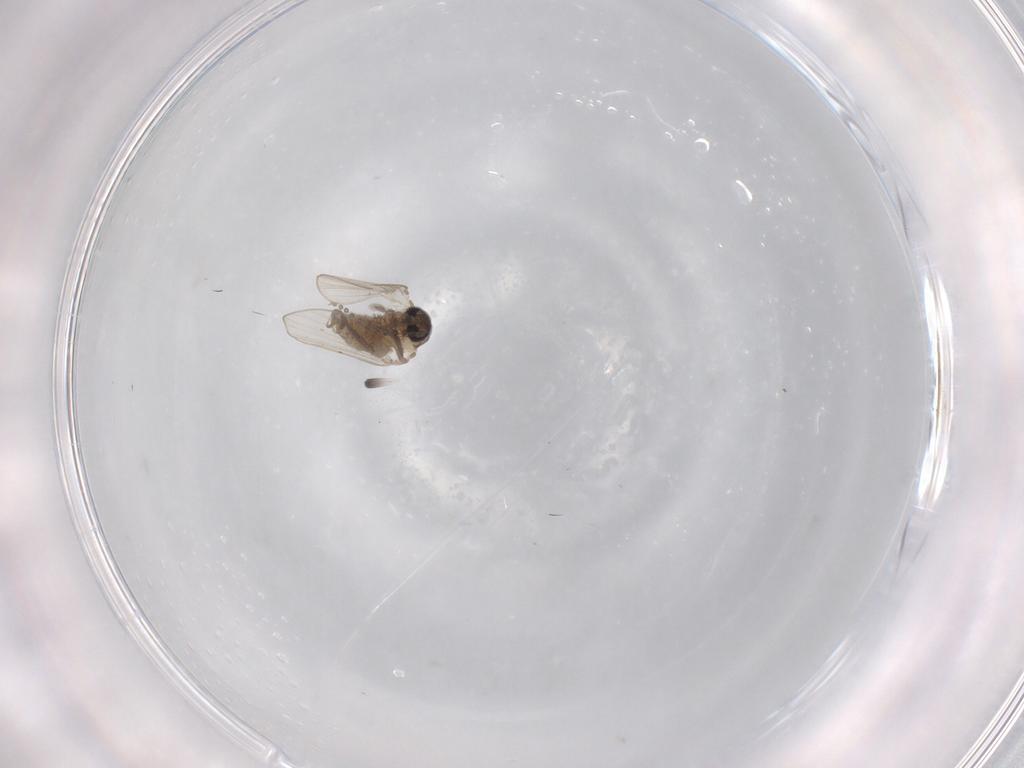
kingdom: Animalia
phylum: Arthropoda
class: Insecta
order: Diptera
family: Psychodidae
